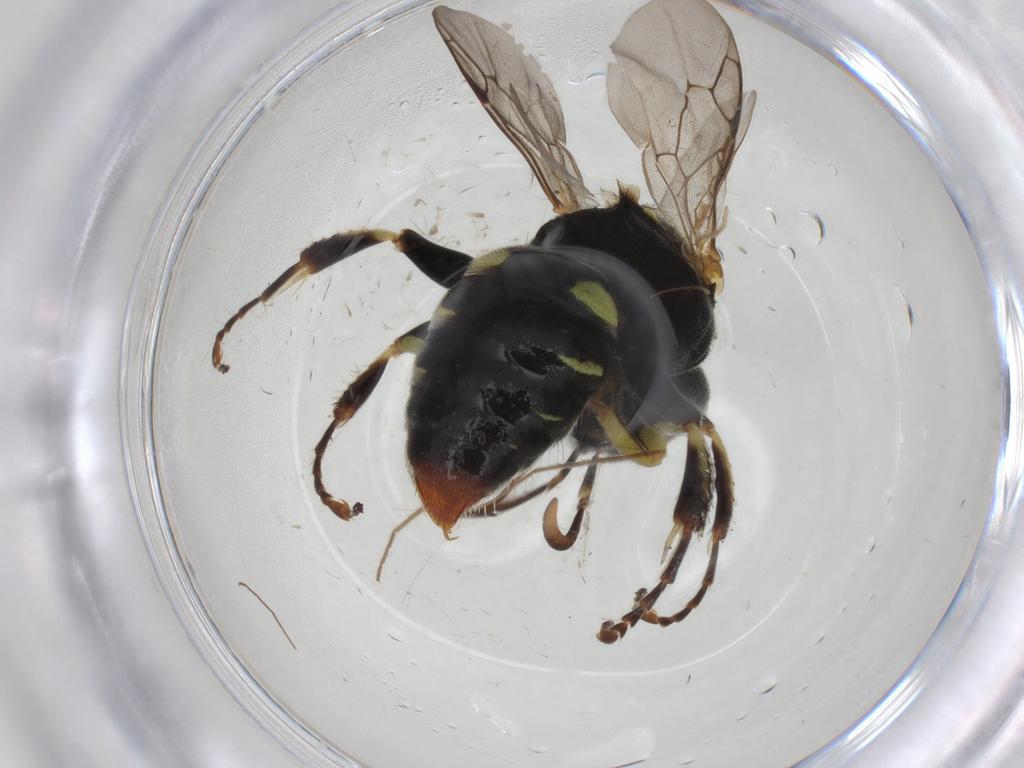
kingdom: Animalia
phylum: Arthropoda
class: Insecta
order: Hymenoptera
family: Crabronidae
